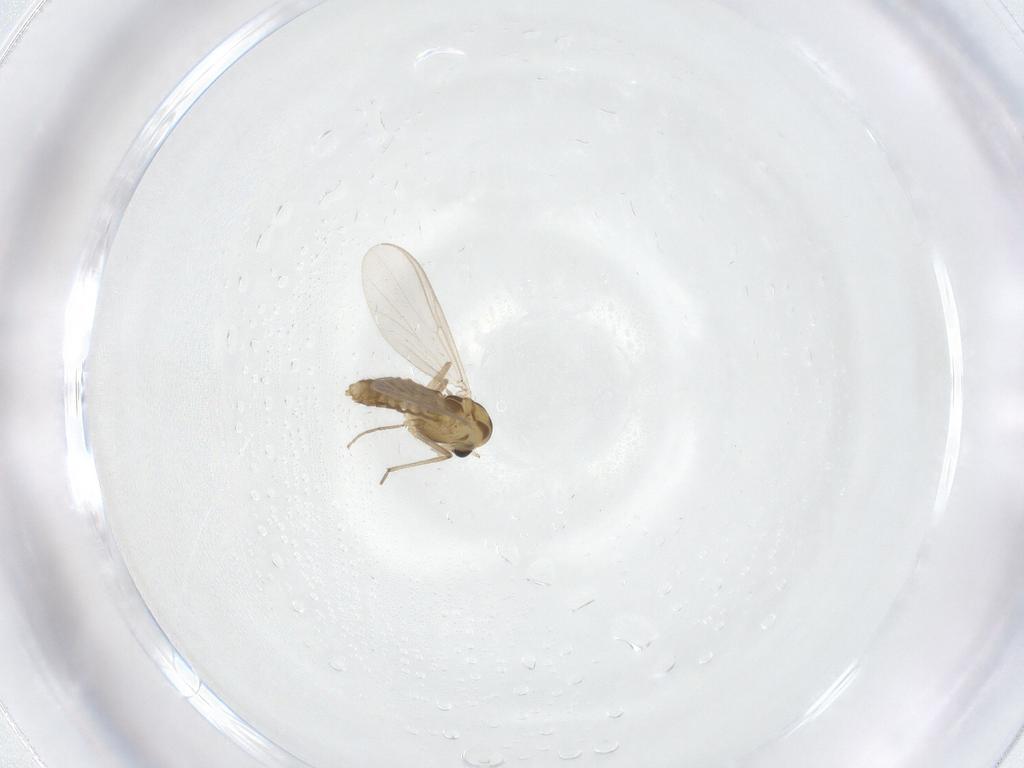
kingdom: Animalia
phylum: Arthropoda
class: Insecta
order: Diptera
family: Chironomidae
